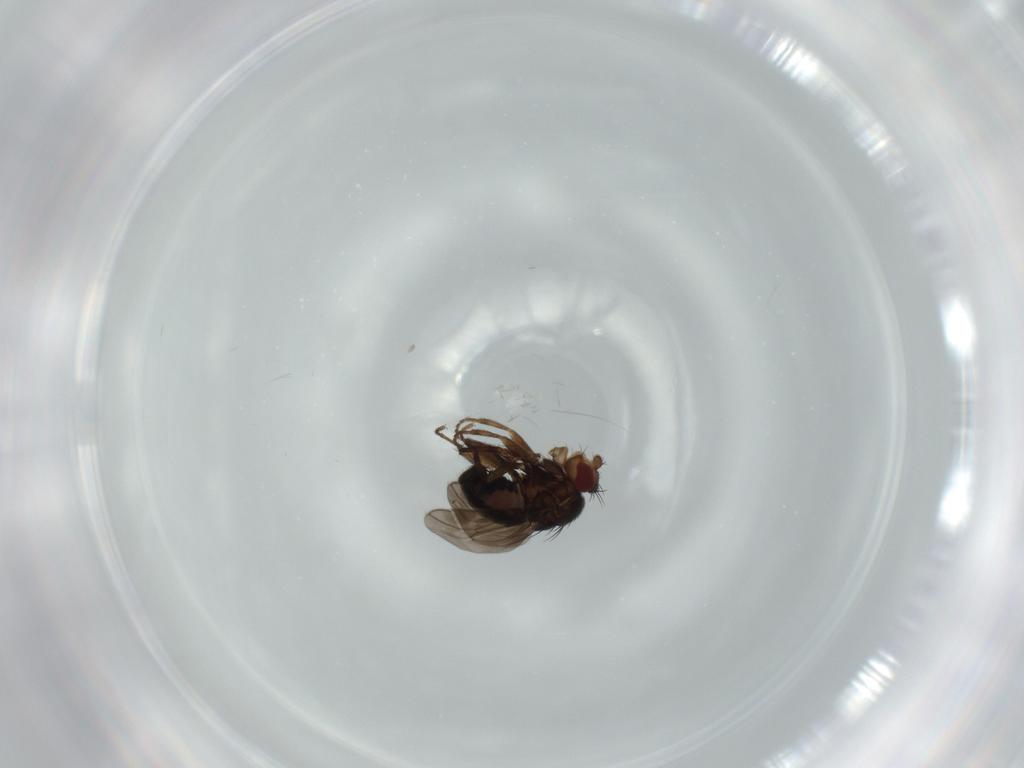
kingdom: Animalia
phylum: Arthropoda
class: Insecta
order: Diptera
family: Sphaeroceridae
